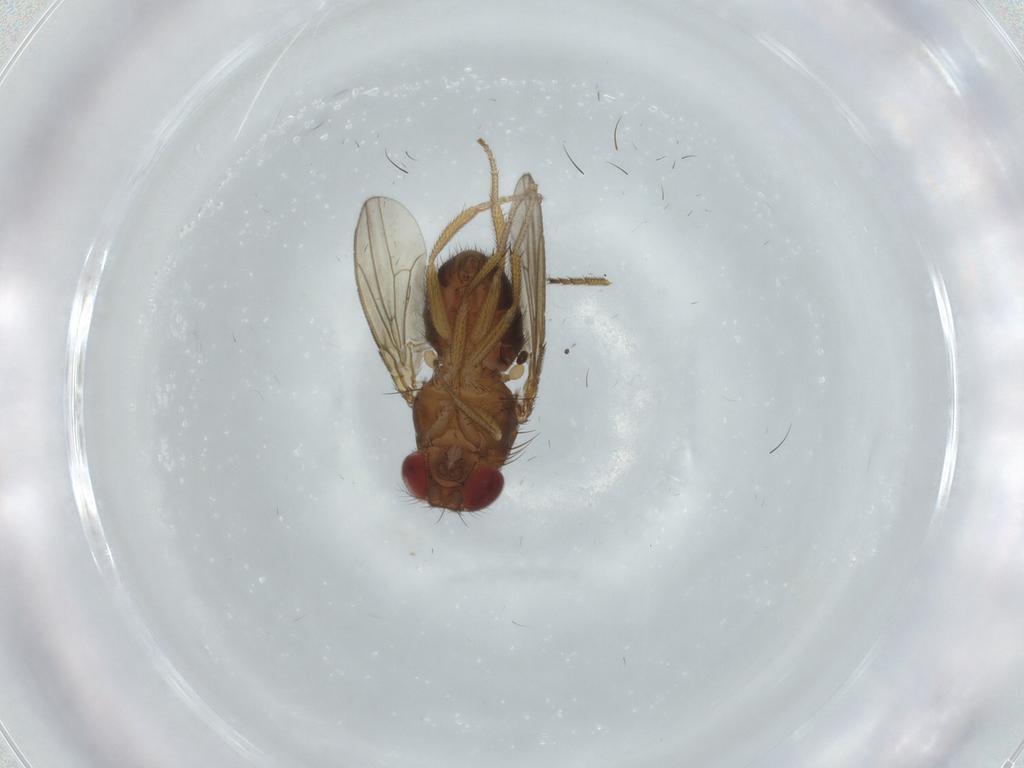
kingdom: Animalia
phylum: Arthropoda
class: Insecta
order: Diptera
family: Drosophilidae
